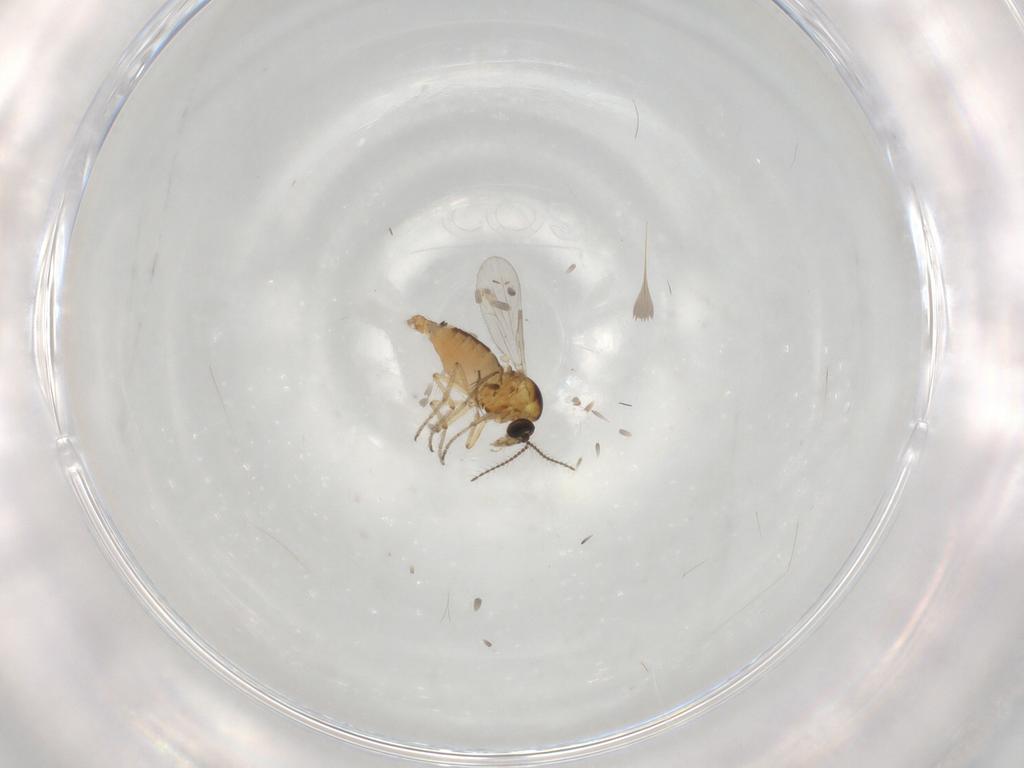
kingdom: Animalia
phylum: Arthropoda
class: Insecta
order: Diptera
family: Ceratopogonidae
